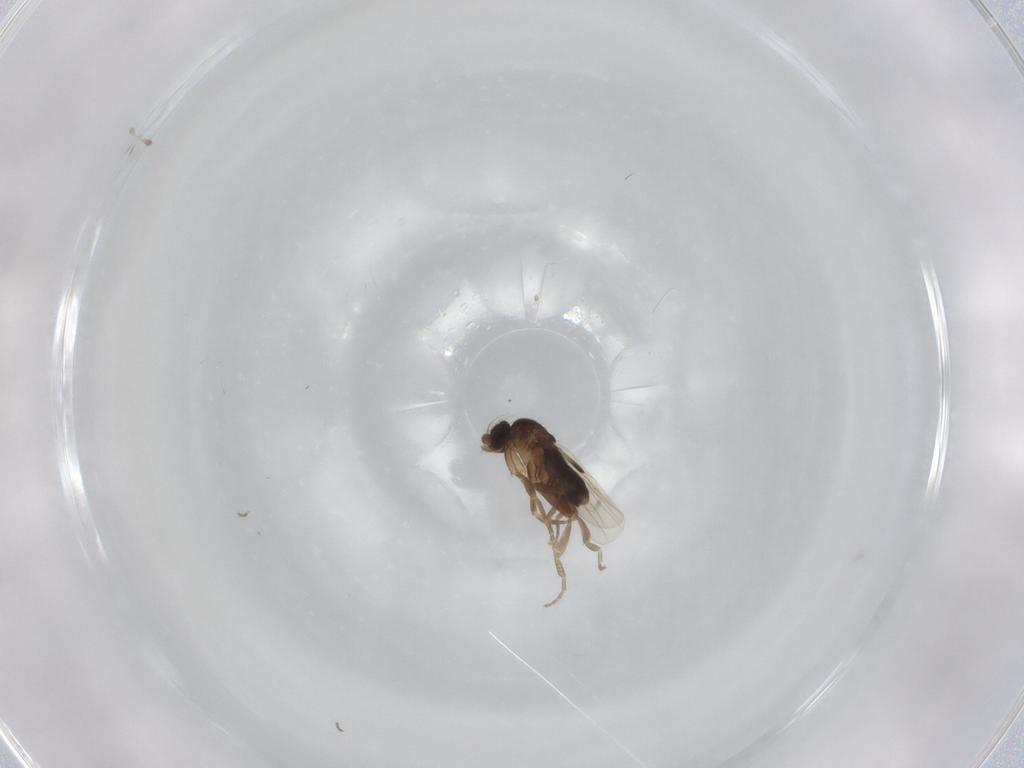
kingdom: Animalia
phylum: Arthropoda
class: Insecta
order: Diptera
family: Phoridae
